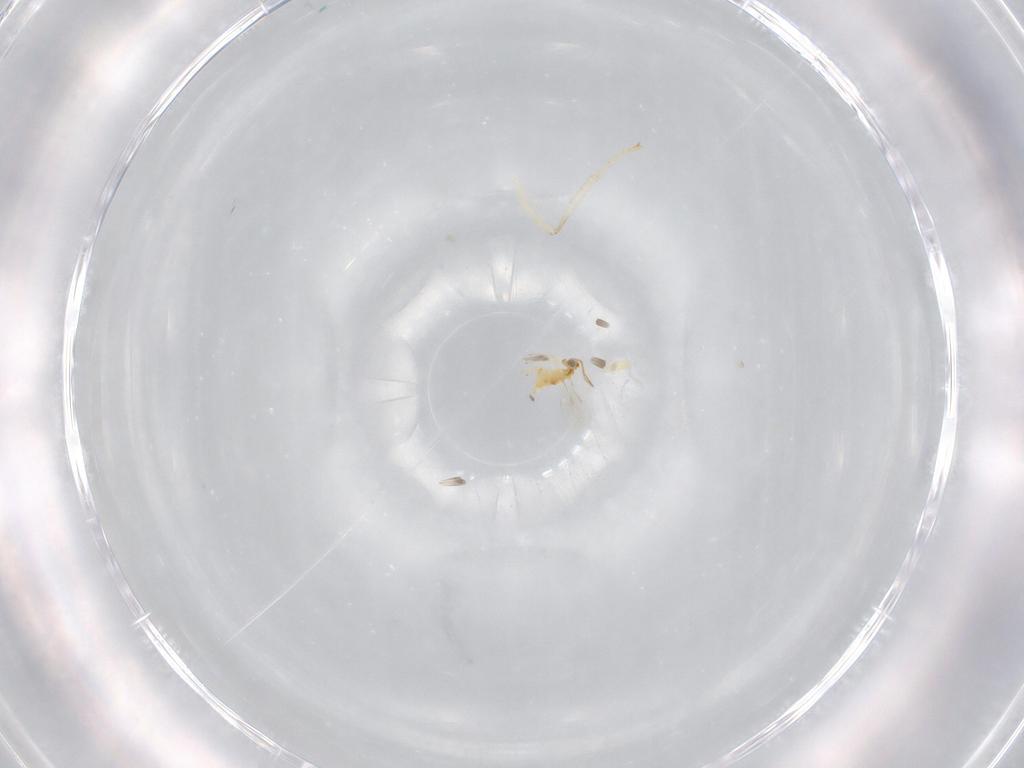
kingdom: Animalia
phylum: Arthropoda
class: Insecta
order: Hymenoptera
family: Aphelinidae
